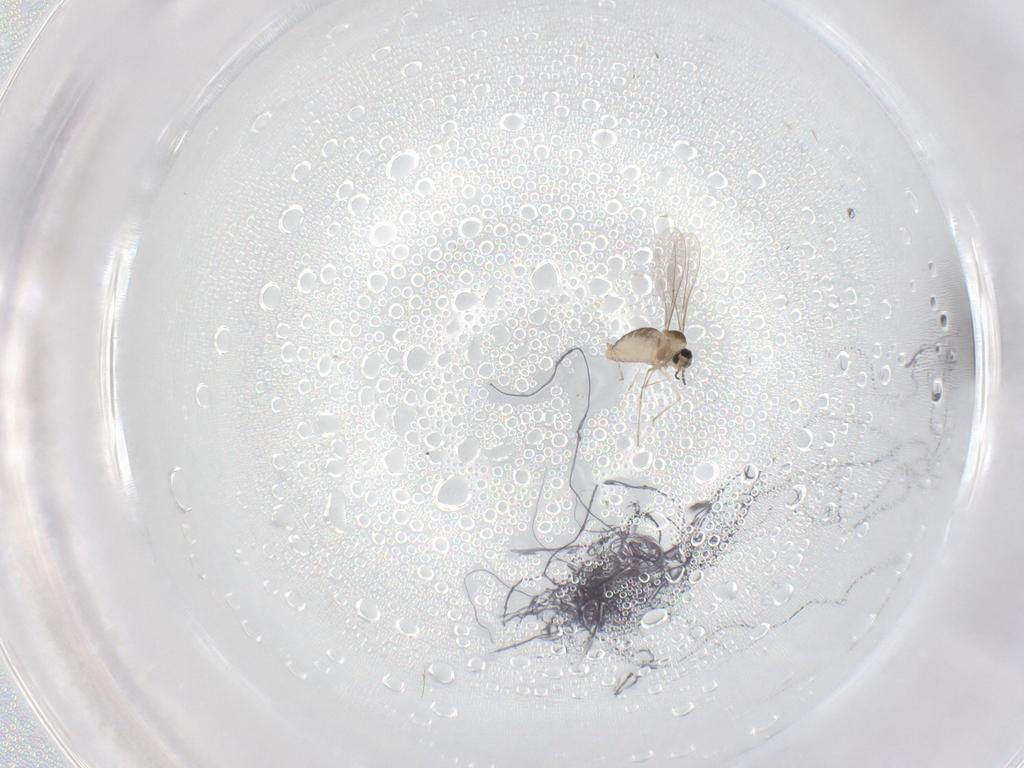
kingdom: Animalia
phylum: Arthropoda
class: Insecta
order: Diptera
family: Cecidomyiidae
